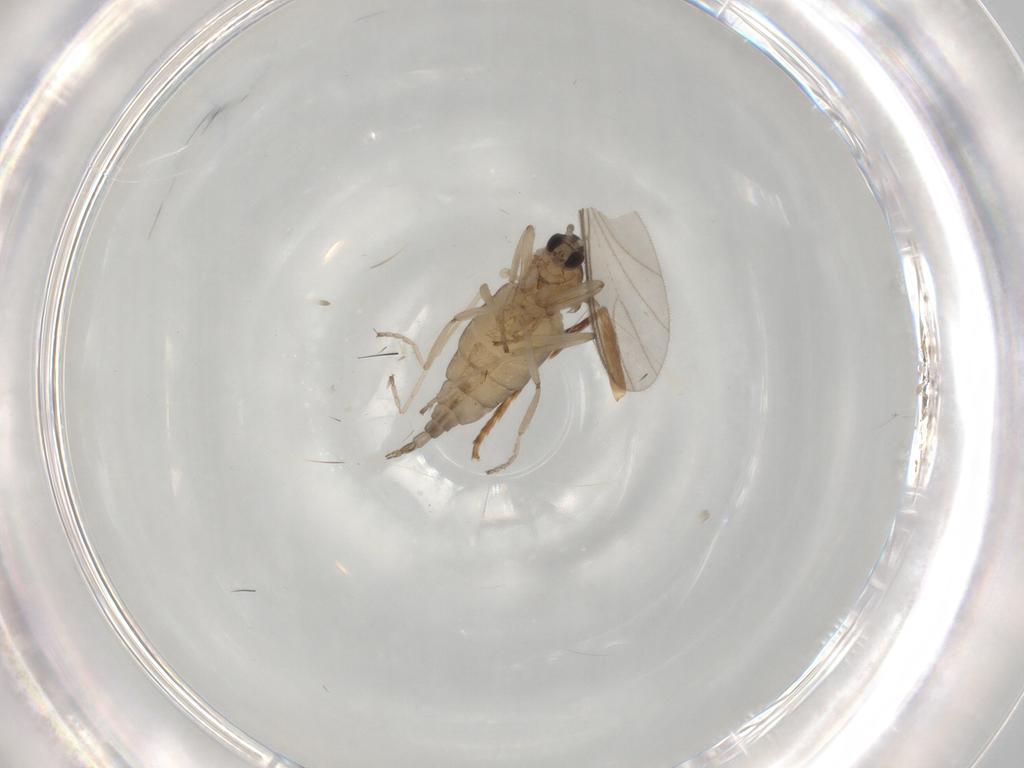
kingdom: Animalia
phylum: Arthropoda
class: Insecta
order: Diptera
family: Cecidomyiidae
